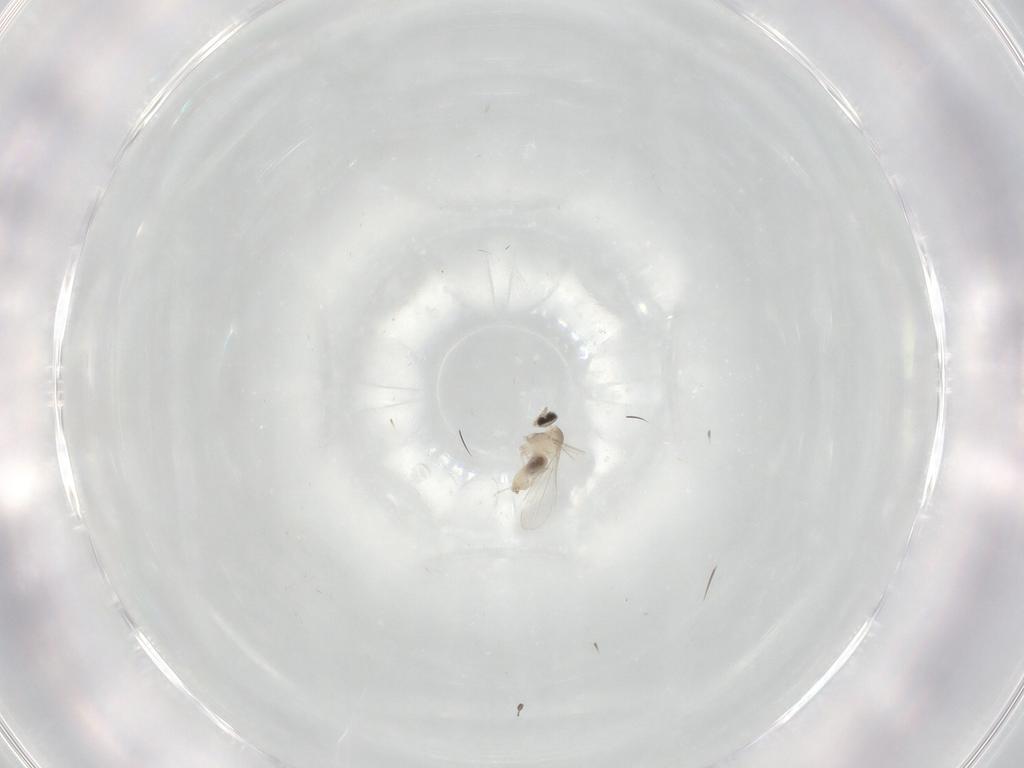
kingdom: Animalia
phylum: Arthropoda
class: Insecta
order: Diptera
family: Cecidomyiidae
